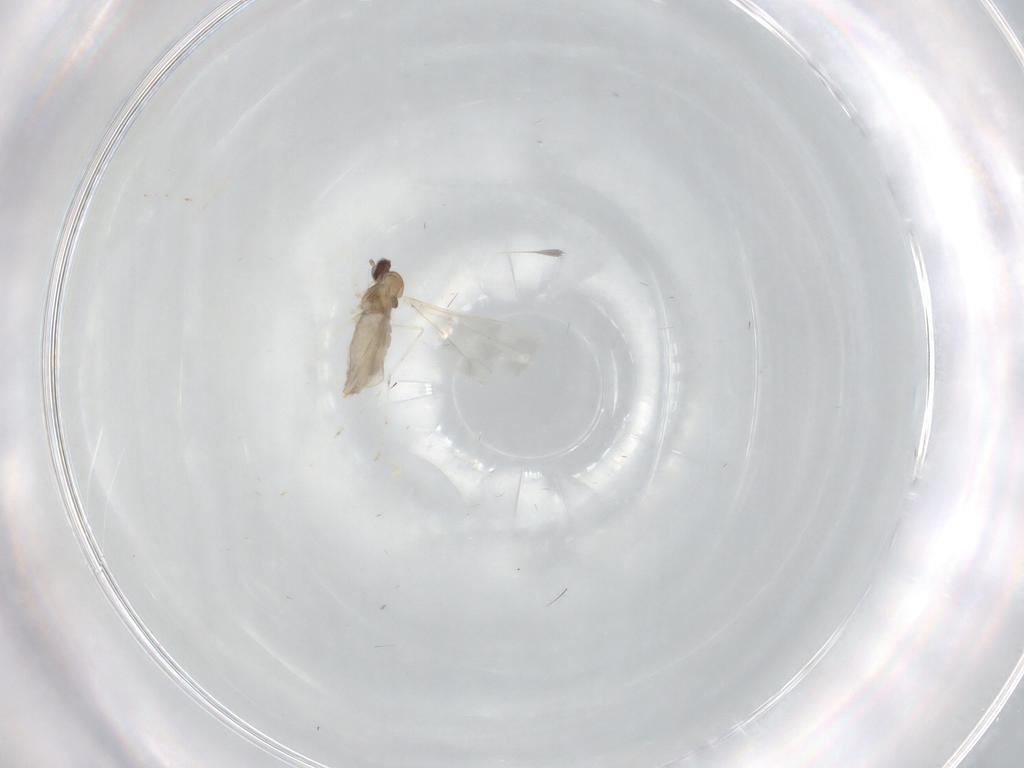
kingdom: Animalia
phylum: Arthropoda
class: Insecta
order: Diptera
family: Cecidomyiidae
